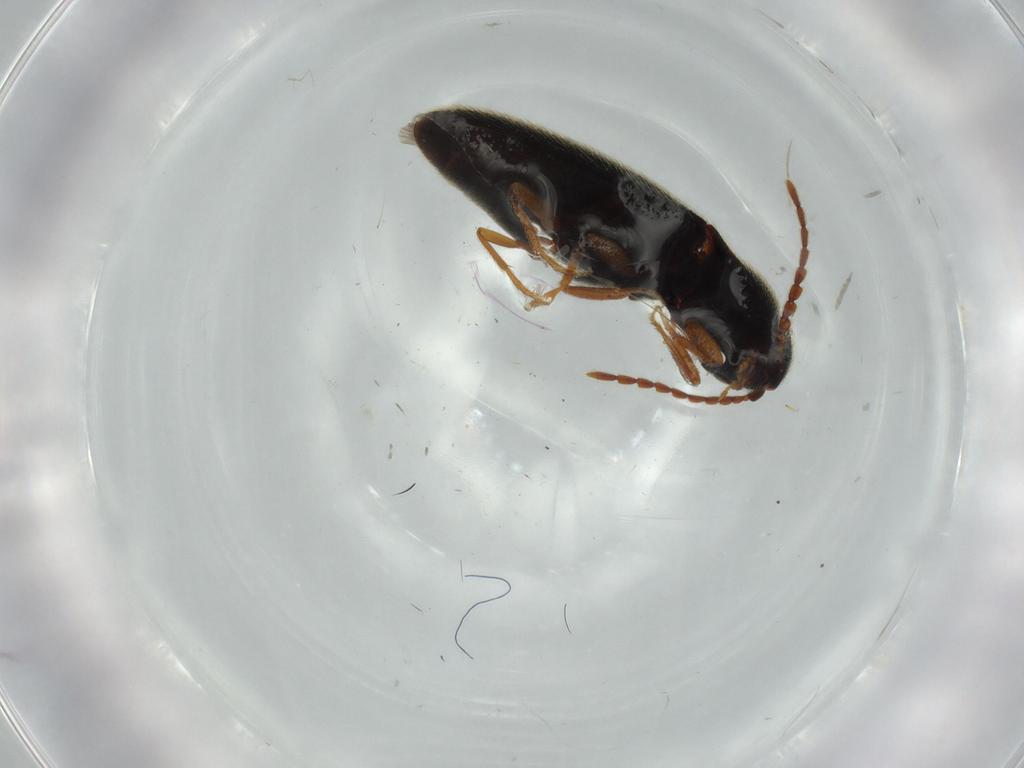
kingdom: Animalia
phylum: Arthropoda
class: Insecta
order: Coleoptera
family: Elateridae
